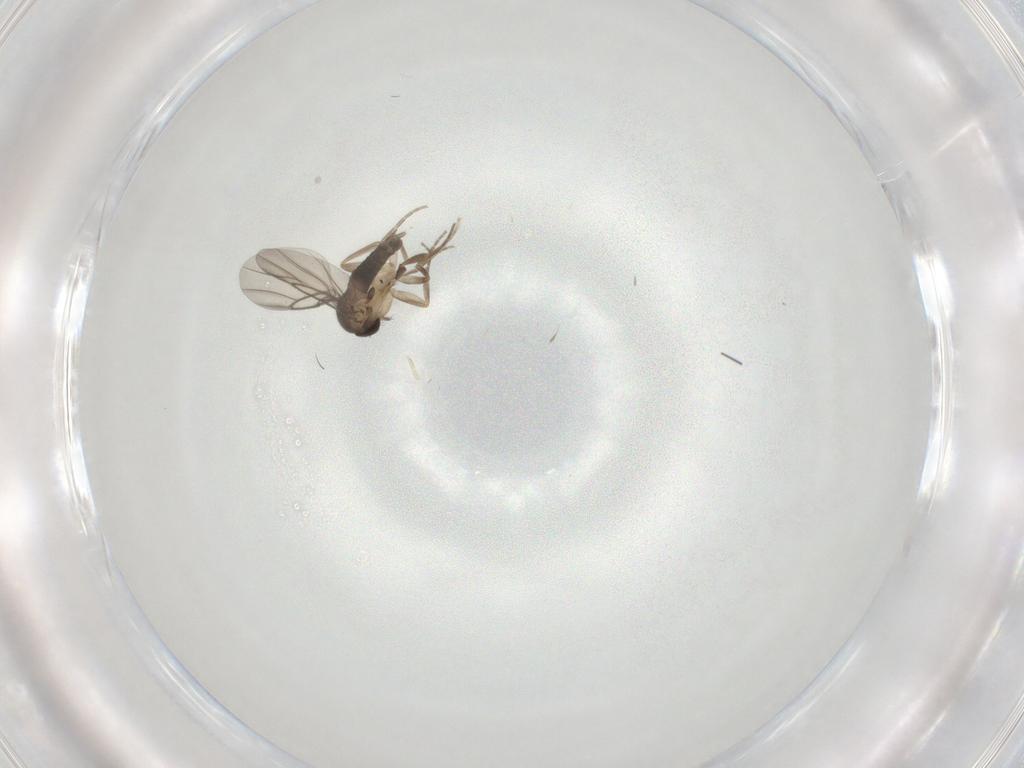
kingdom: Animalia
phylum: Arthropoda
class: Insecta
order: Diptera
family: Phoridae
